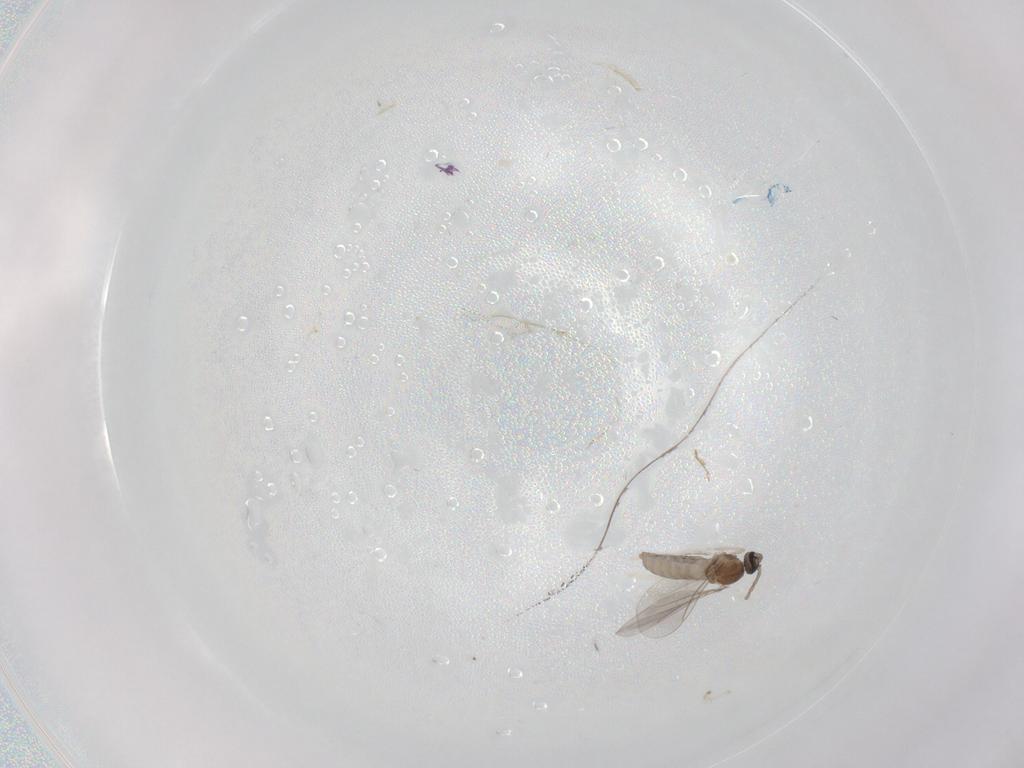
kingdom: Animalia
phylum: Arthropoda
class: Insecta
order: Diptera
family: Cecidomyiidae
